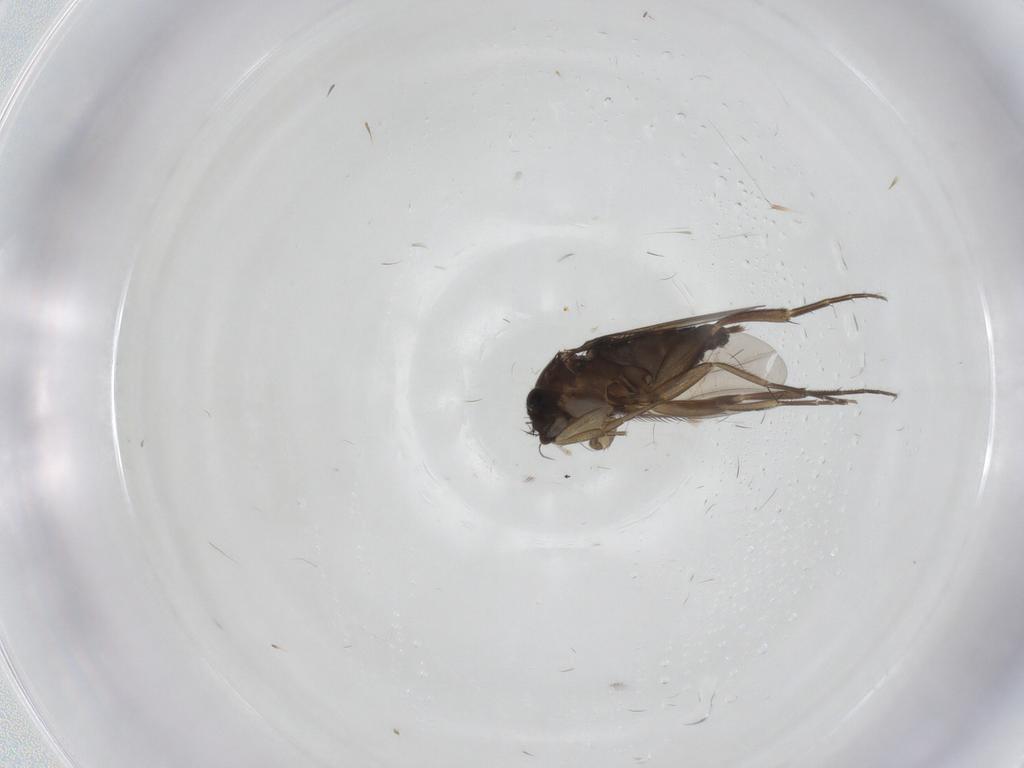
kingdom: Animalia
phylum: Arthropoda
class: Insecta
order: Diptera
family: Phoridae
